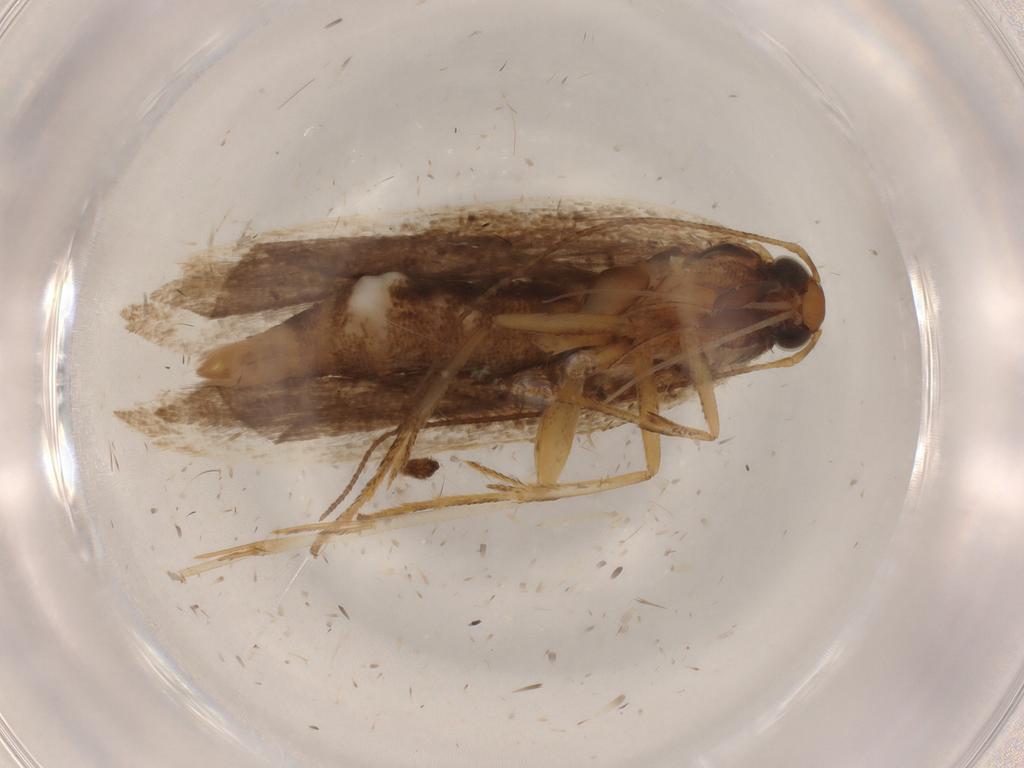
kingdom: Animalia
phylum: Arthropoda
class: Insecta
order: Lepidoptera
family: Gelechiidae
